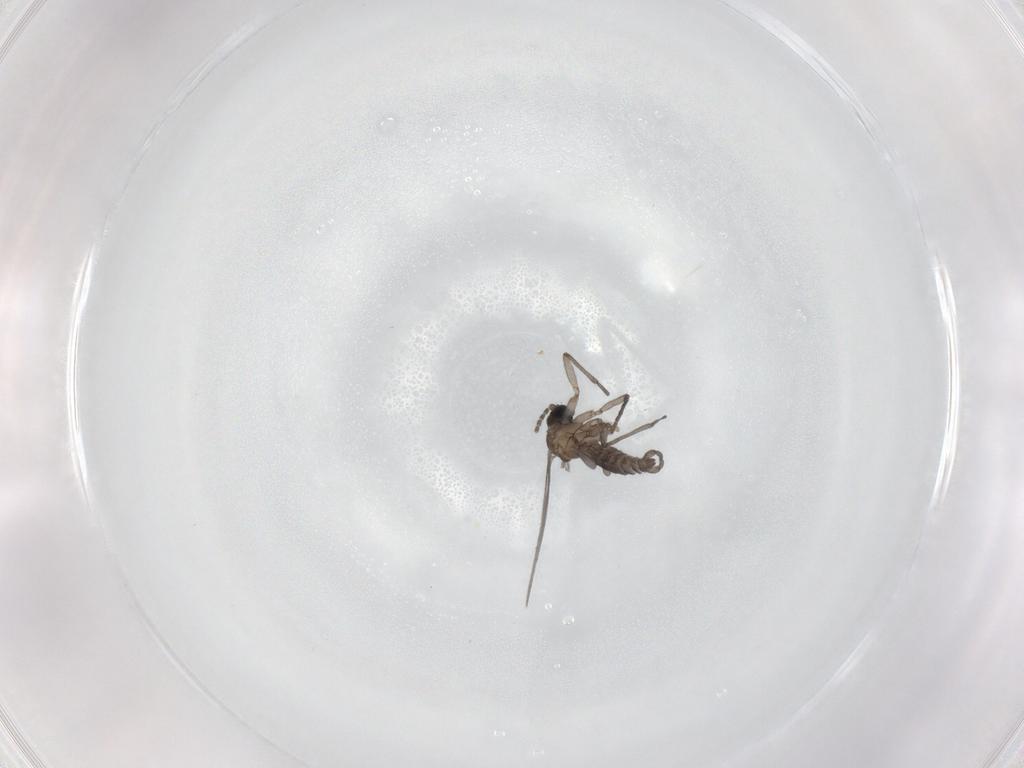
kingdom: Animalia
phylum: Arthropoda
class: Insecta
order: Diptera
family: Sciaridae
